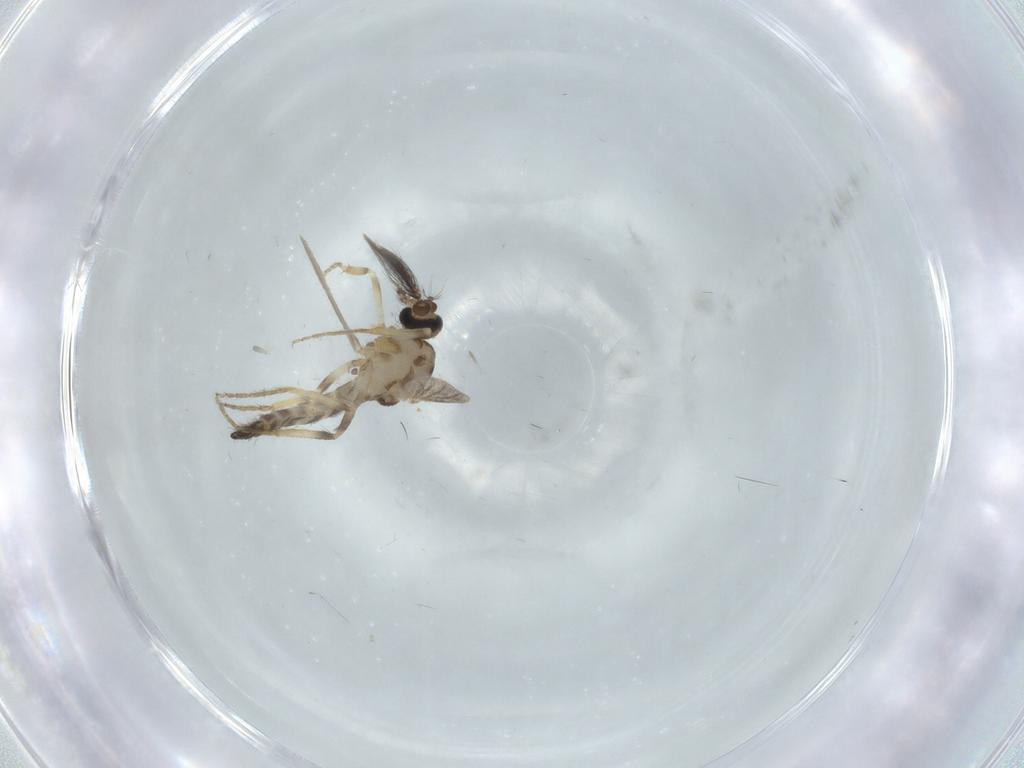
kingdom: Animalia
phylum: Arthropoda
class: Insecta
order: Diptera
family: Ceratopogonidae
